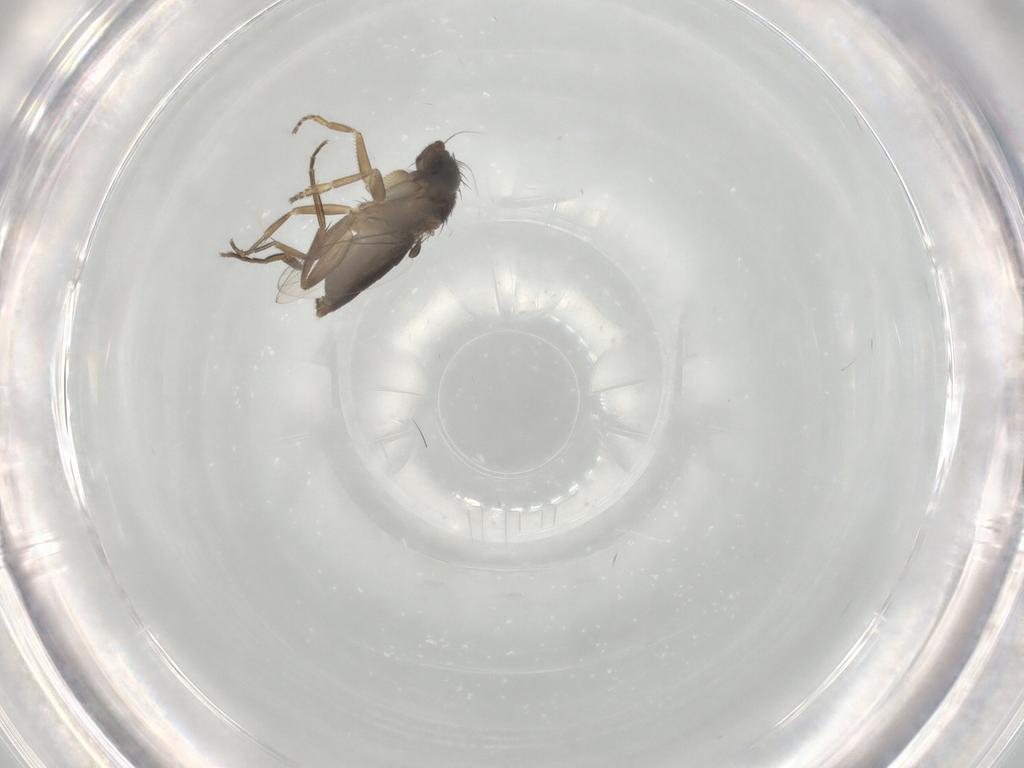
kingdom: Animalia
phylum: Arthropoda
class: Insecta
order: Diptera
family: Phoridae
